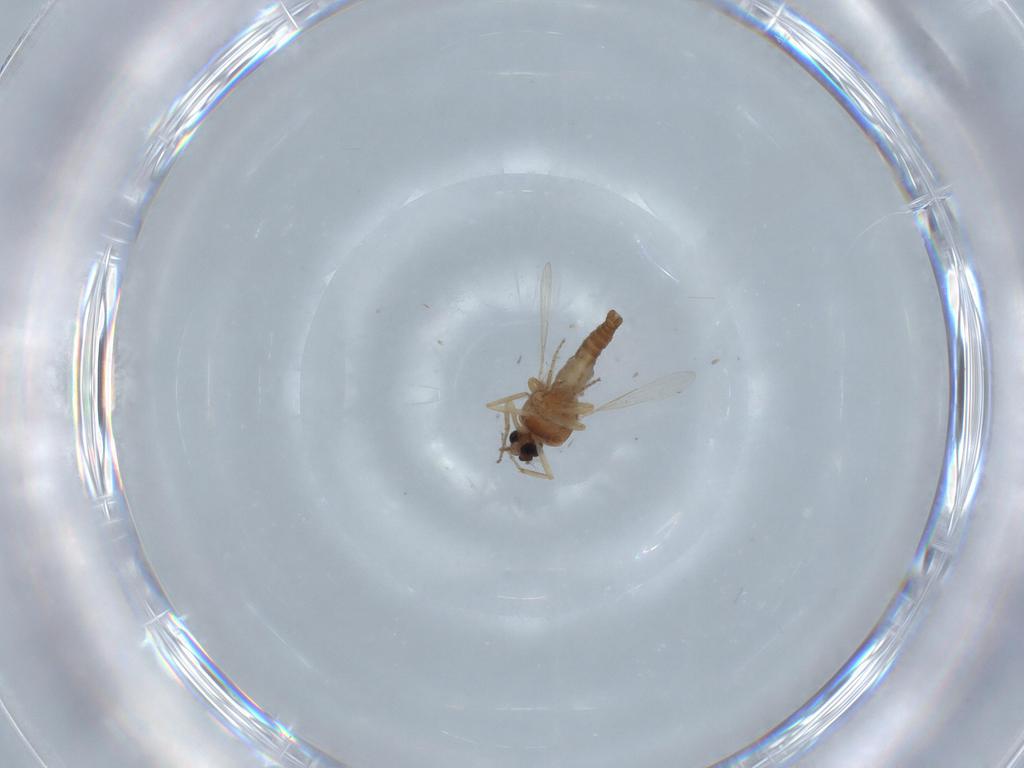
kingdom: Animalia
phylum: Arthropoda
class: Insecta
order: Diptera
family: Ceratopogonidae
